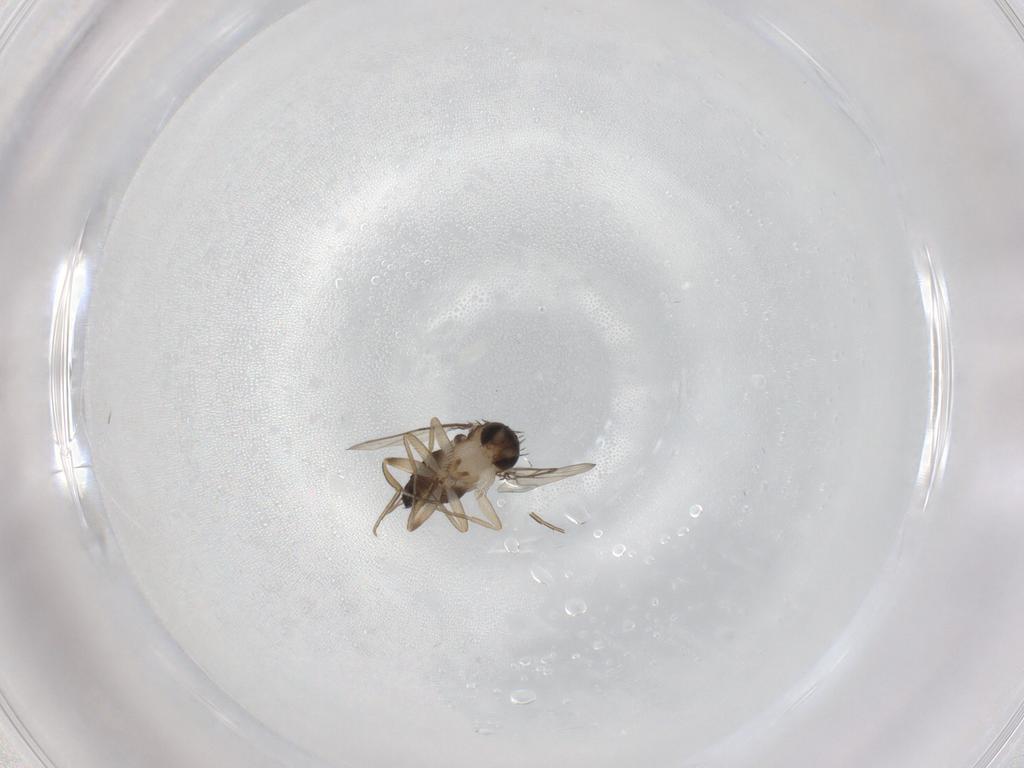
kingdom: Animalia
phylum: Arthropoda
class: Insecta
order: Diptera
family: Phoridae
